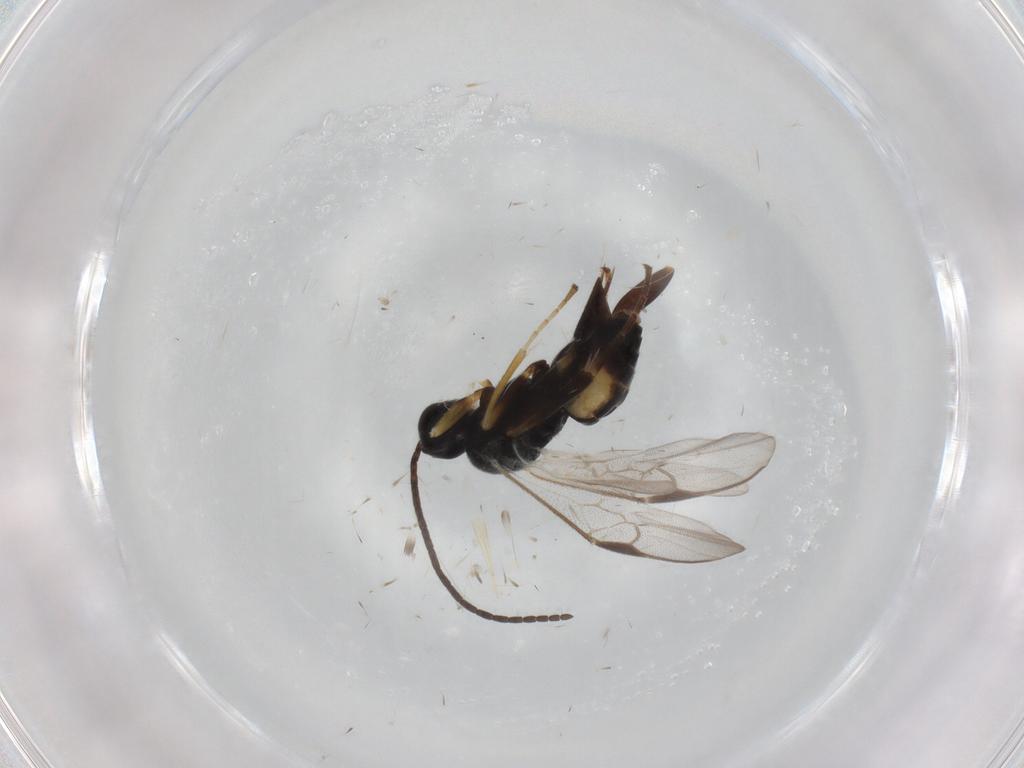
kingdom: Animalia
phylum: Arthropoda
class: Insecta
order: Hymenoptera
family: Braconidae
